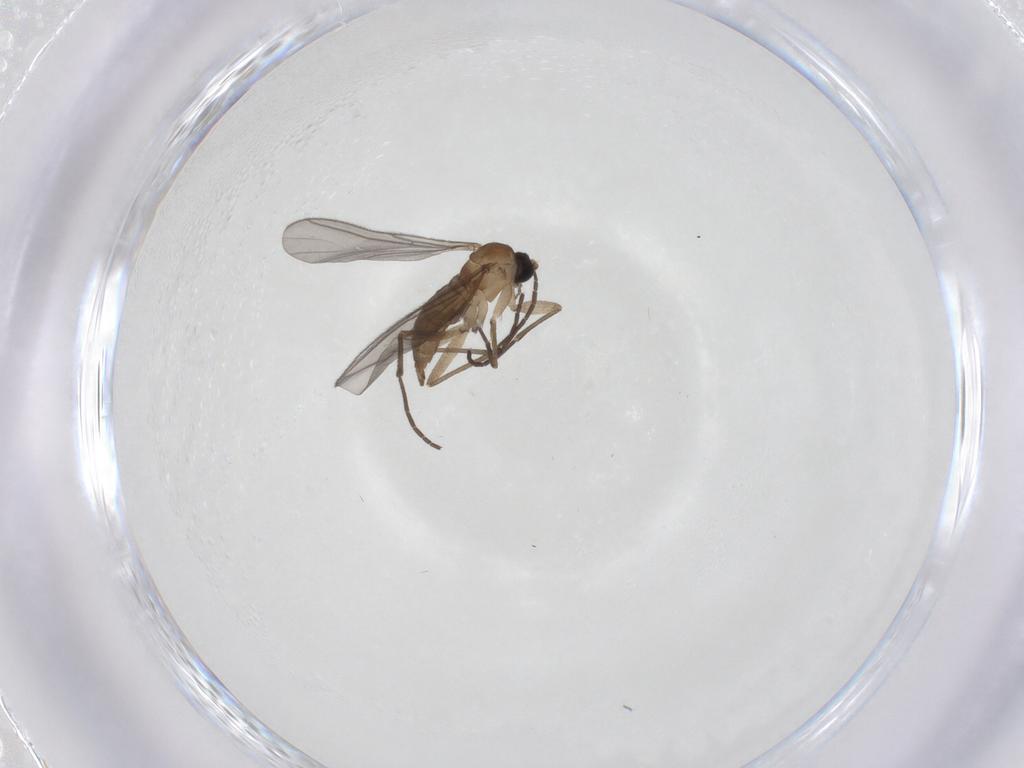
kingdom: Animalia
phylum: Arthropoda
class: Insecta
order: Diptera
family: Sciaridae
